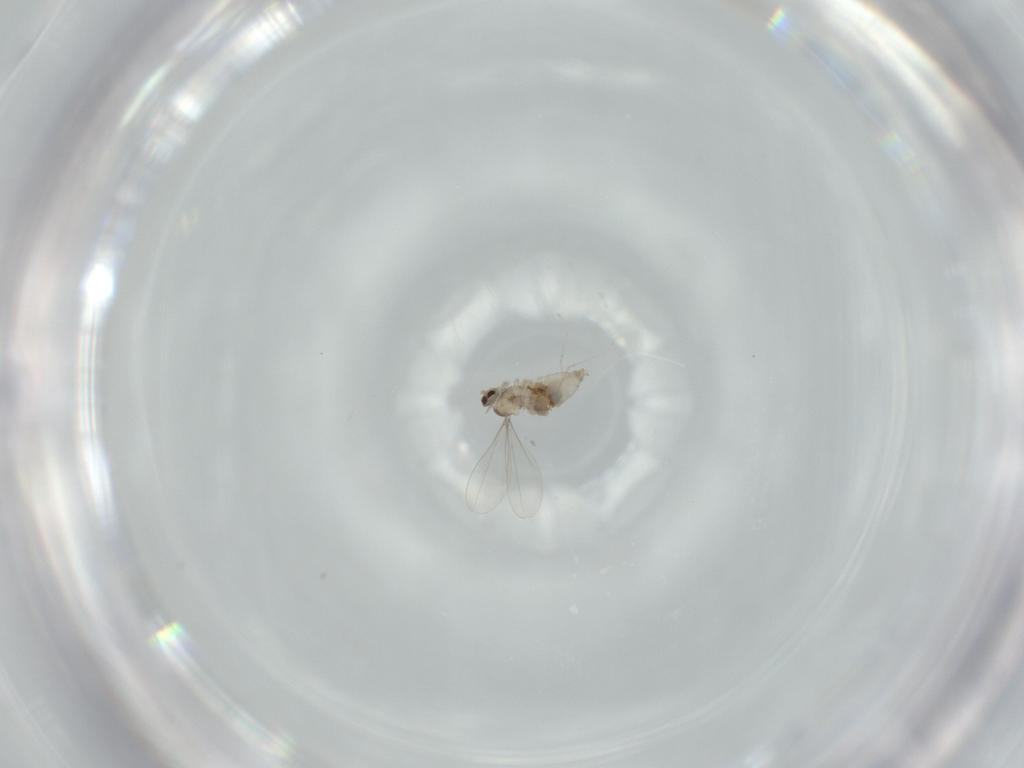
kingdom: Animalia
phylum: Arthropoda
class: Insecta
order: Diptera
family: Cecidomyiidae
